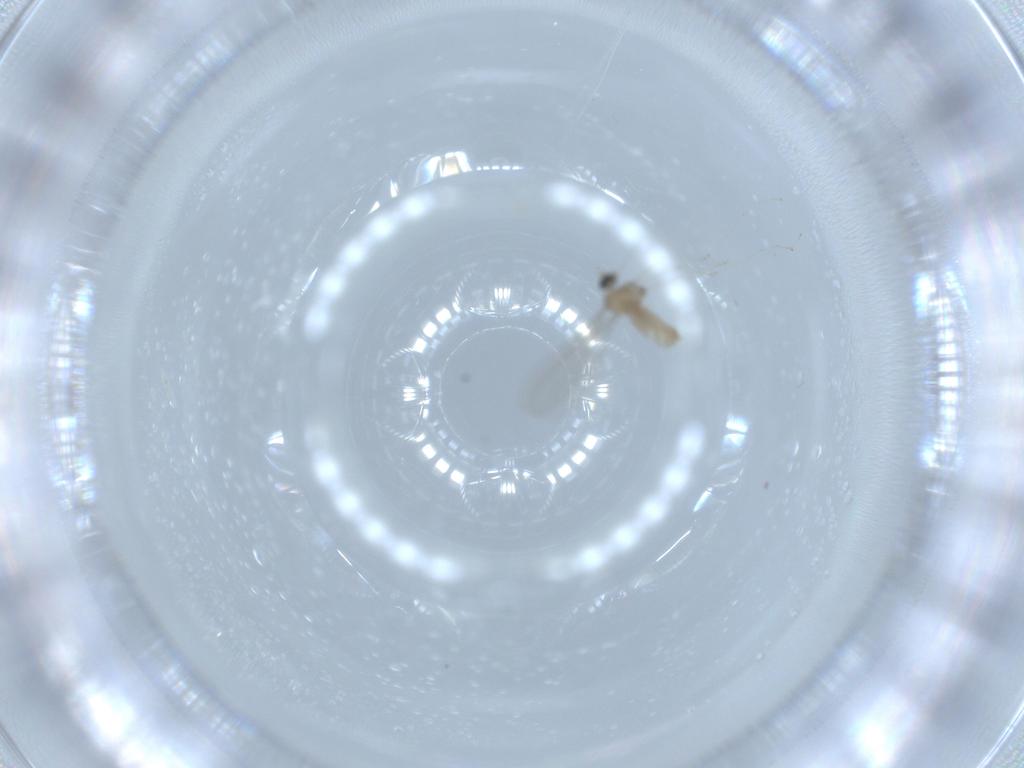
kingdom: Animalia
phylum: Arthropoda
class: Insecta
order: Diptera
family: Cecidomyiidae
